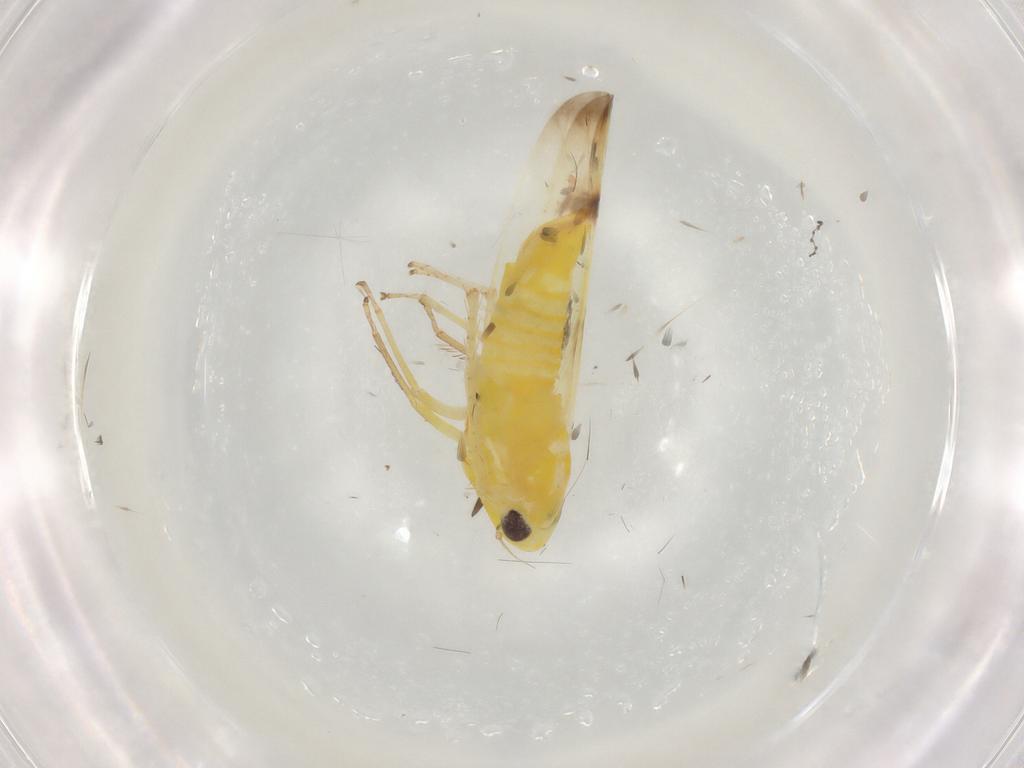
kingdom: Animalia
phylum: Arthropoda
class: Insecta
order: Hemiptera
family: Cicadellidae
